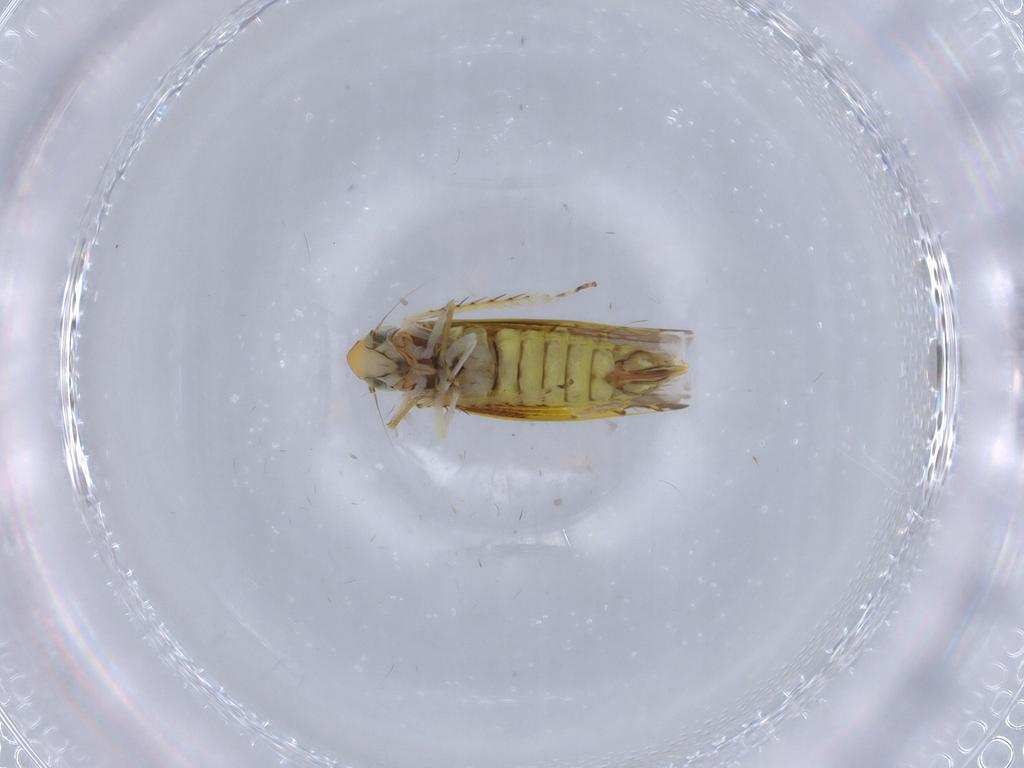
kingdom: Animalia
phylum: Arthropoda
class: Insecta
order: Hemiptera
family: Cicadellidae
